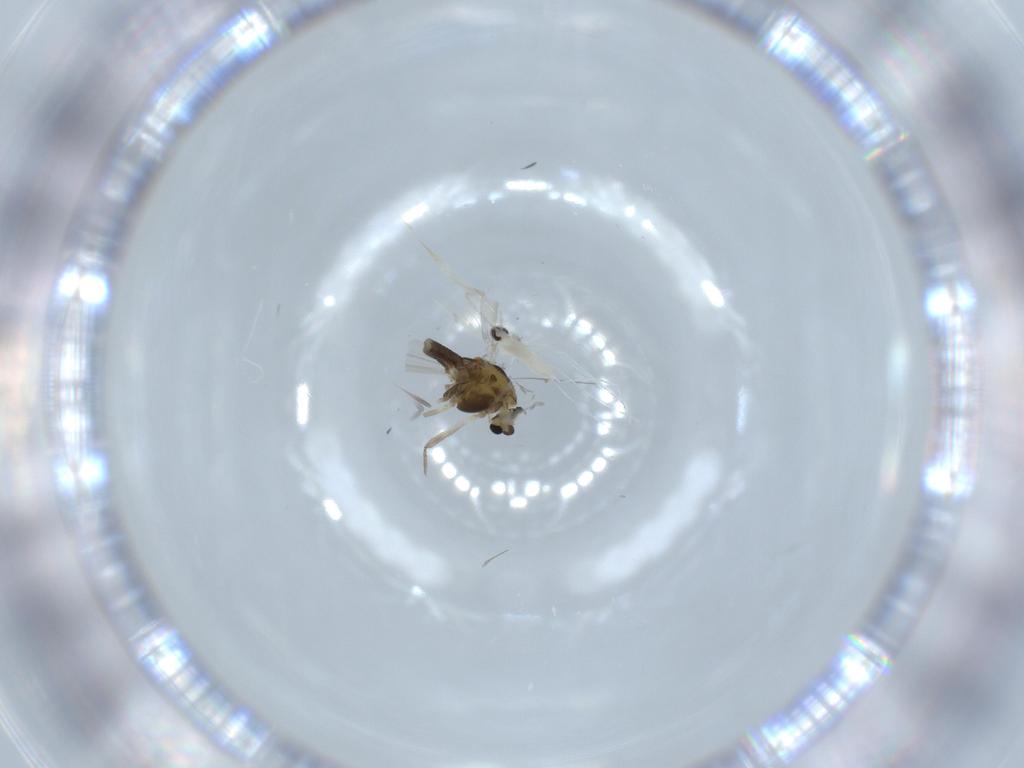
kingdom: Animalia
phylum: Arthropoda
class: Insecta
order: Diptera
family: Chironomidae
